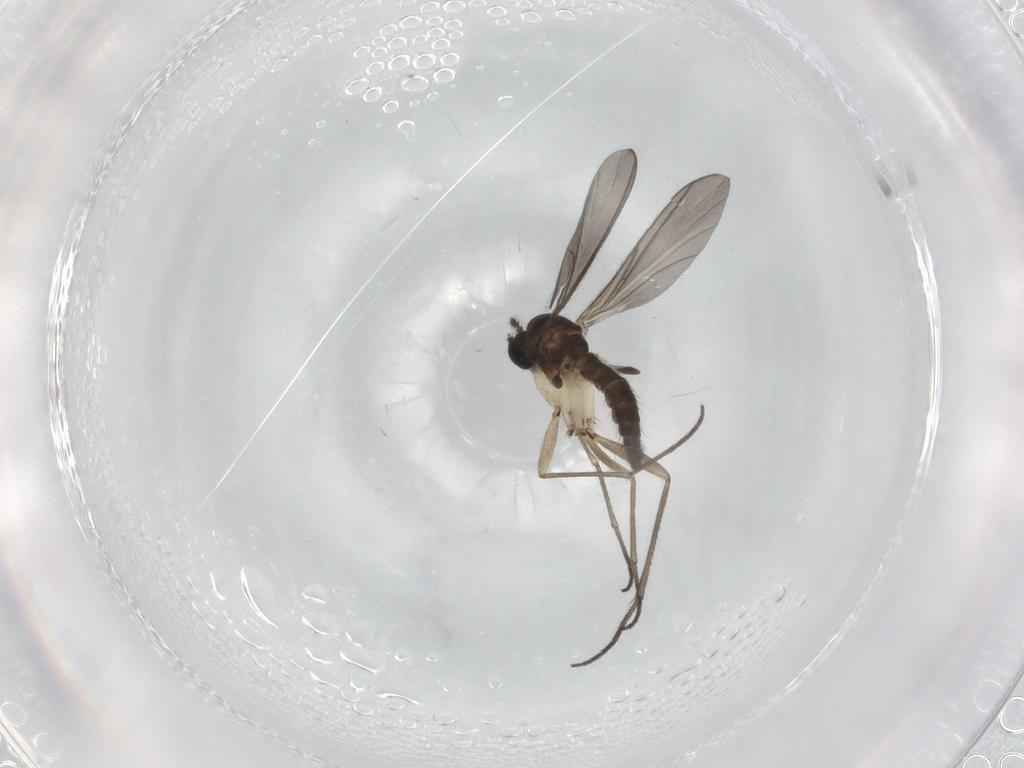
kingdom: Animalia
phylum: Arthropoda
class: Insecta
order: Diptera
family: Sciaridae
